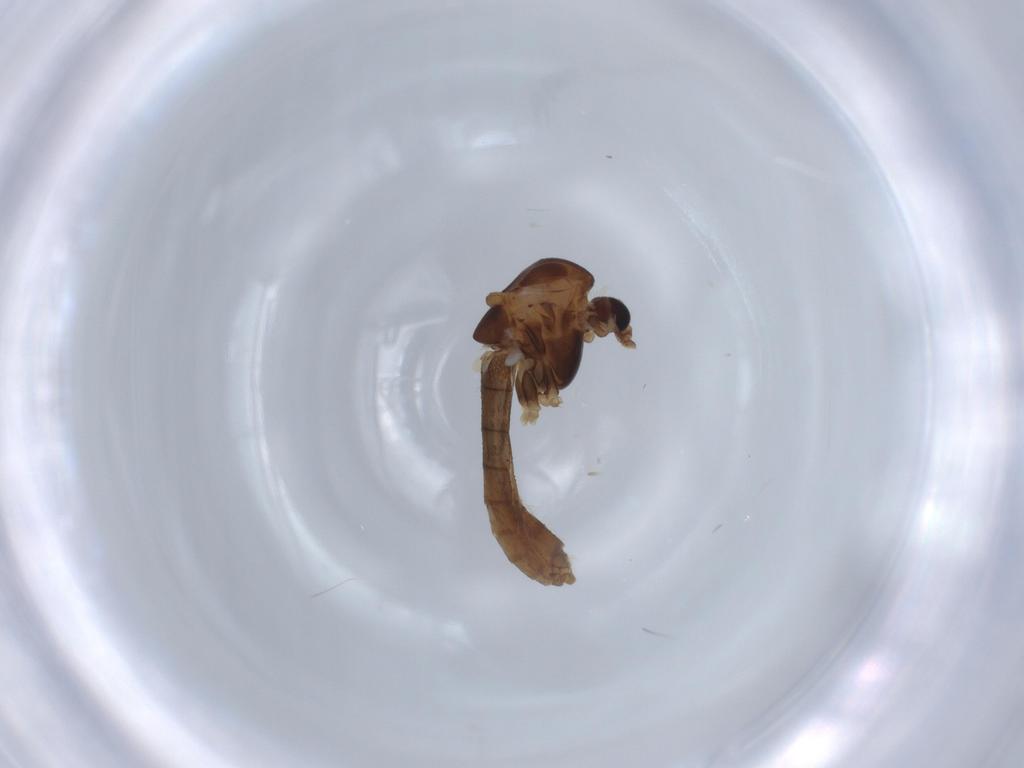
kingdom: Animalia
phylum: Arthropoda
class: Insecta
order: Diptera
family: Chironomidae
